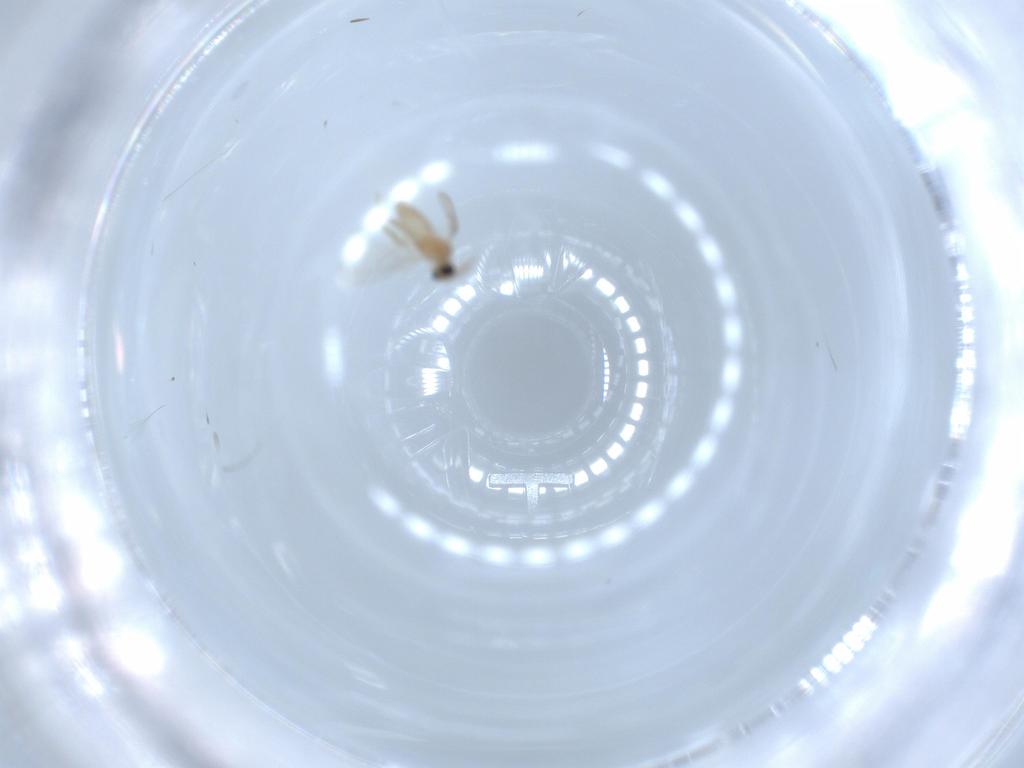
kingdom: Animalia
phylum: Arthropoda
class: Insecta
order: Diptera
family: Cecidomyiidae
